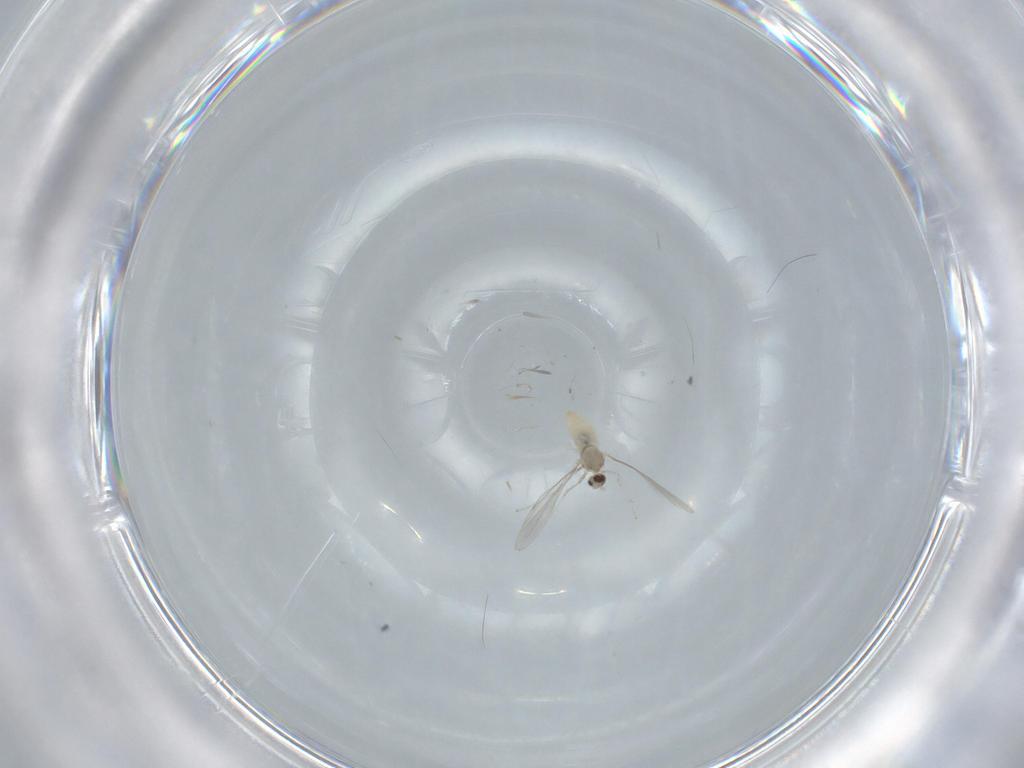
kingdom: Animalia
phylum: Arthropoda
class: Insecta
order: Diptera
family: Cecidomyiidae
